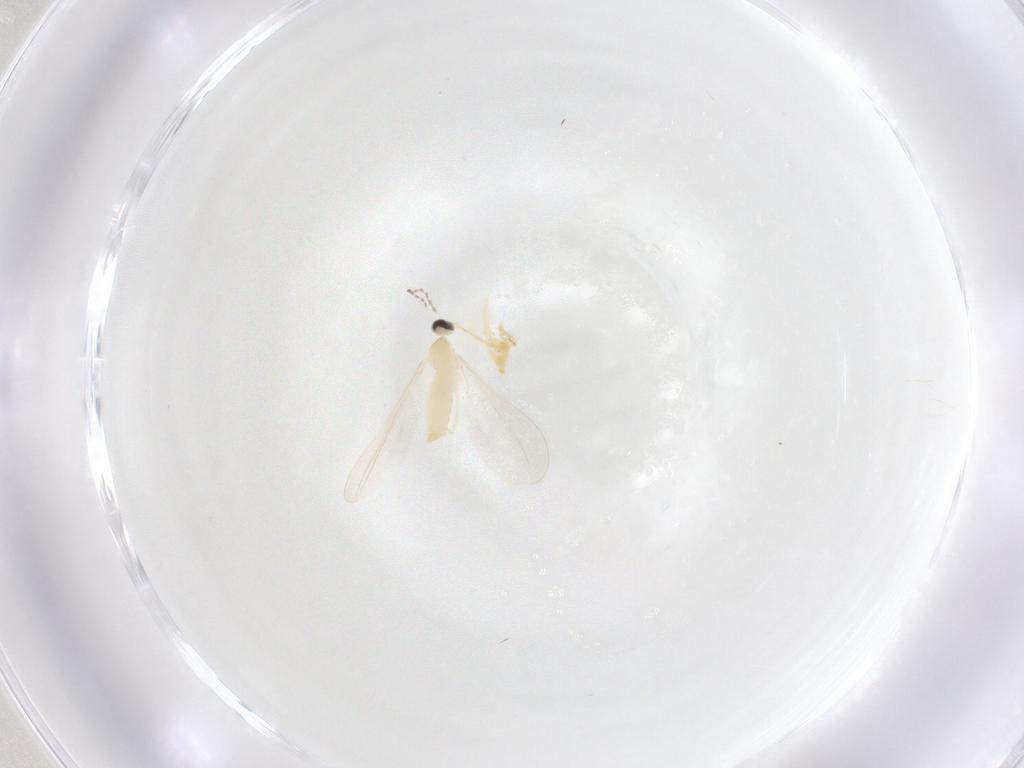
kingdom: Animalia
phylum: Arthropoda
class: Insecta
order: Diptera
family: Cecidomyiidae
